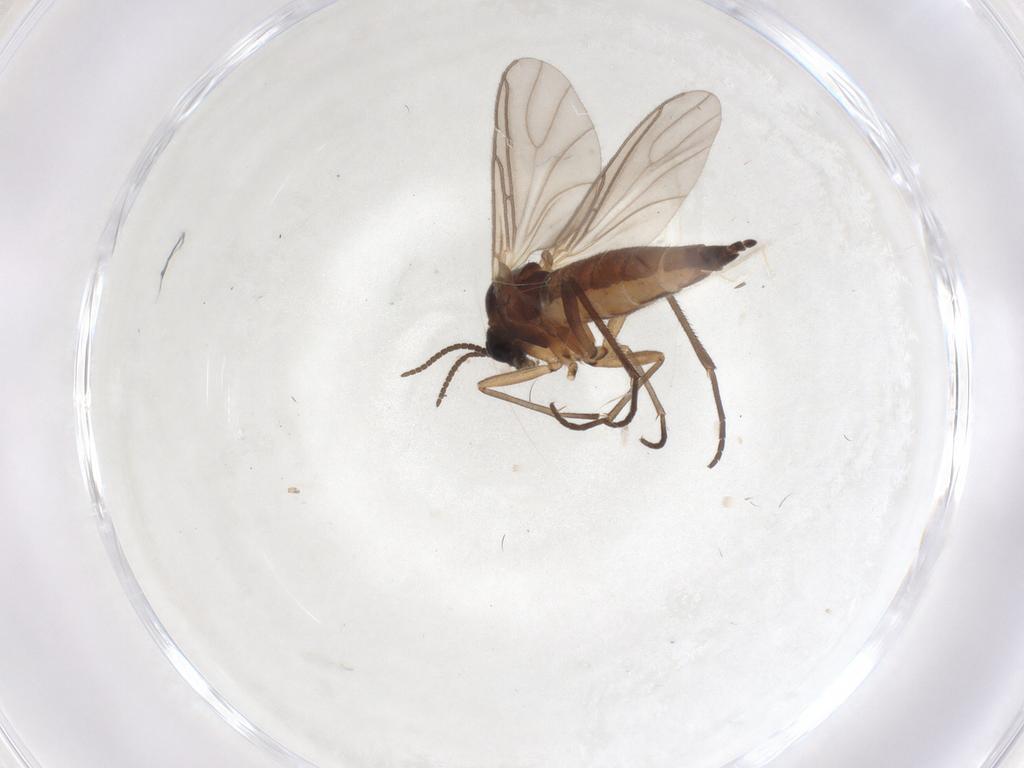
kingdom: Animalia
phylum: Arthropoda
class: Insecta
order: Diptera
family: Sciaridae
